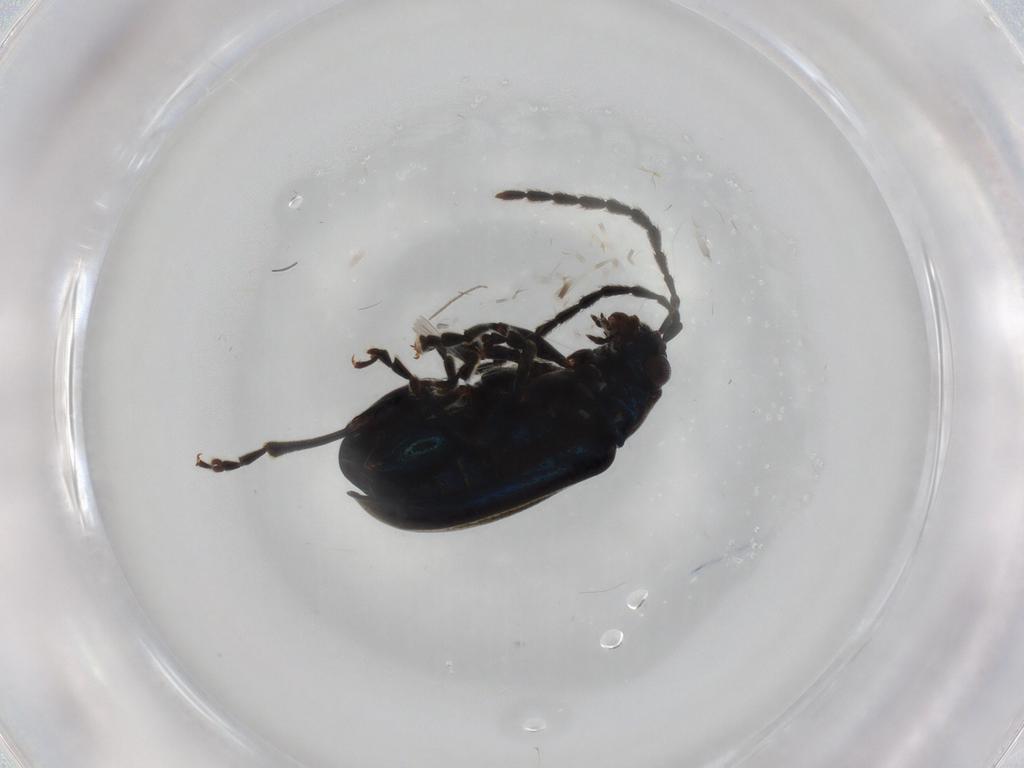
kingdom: Animalia
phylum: Arthropoda
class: Insecta
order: Coleoptera
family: Chrysomelidae
